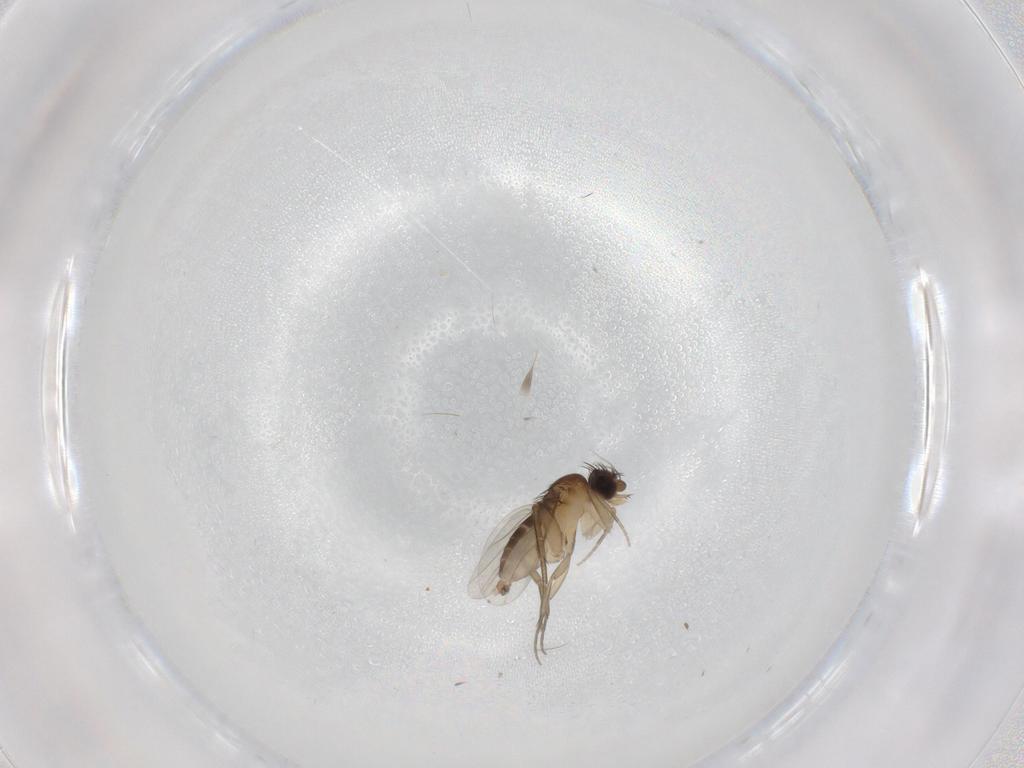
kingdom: Animalia
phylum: Arthropoda
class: Insecta
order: Diptera
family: Phoridae
